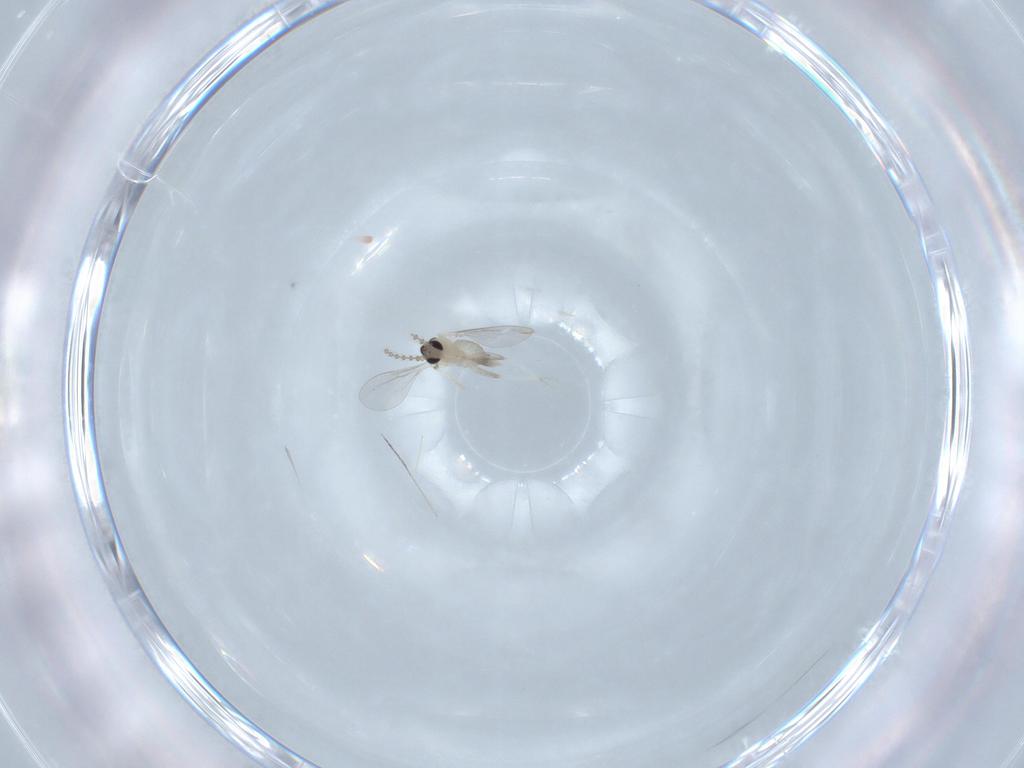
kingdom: Animalia
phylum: Arthropoda
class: Insecta
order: Diptera
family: Cecidomyiidae
